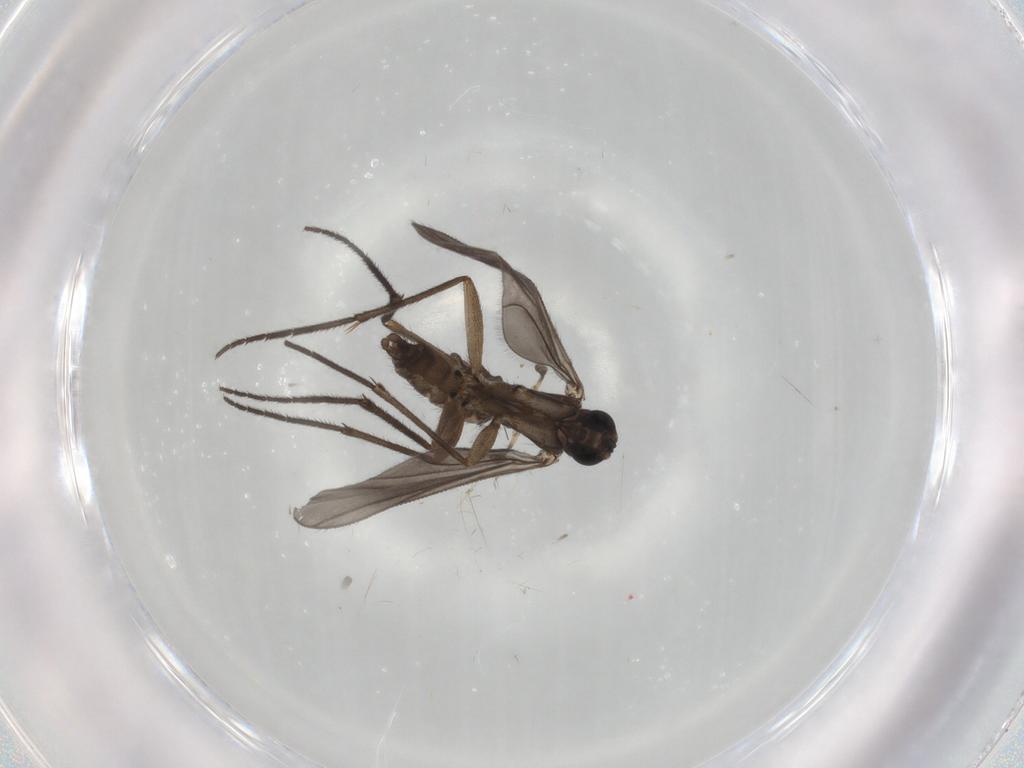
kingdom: Animalia
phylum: Arthropoda
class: Insecta
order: Diptera
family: Sciaridae
